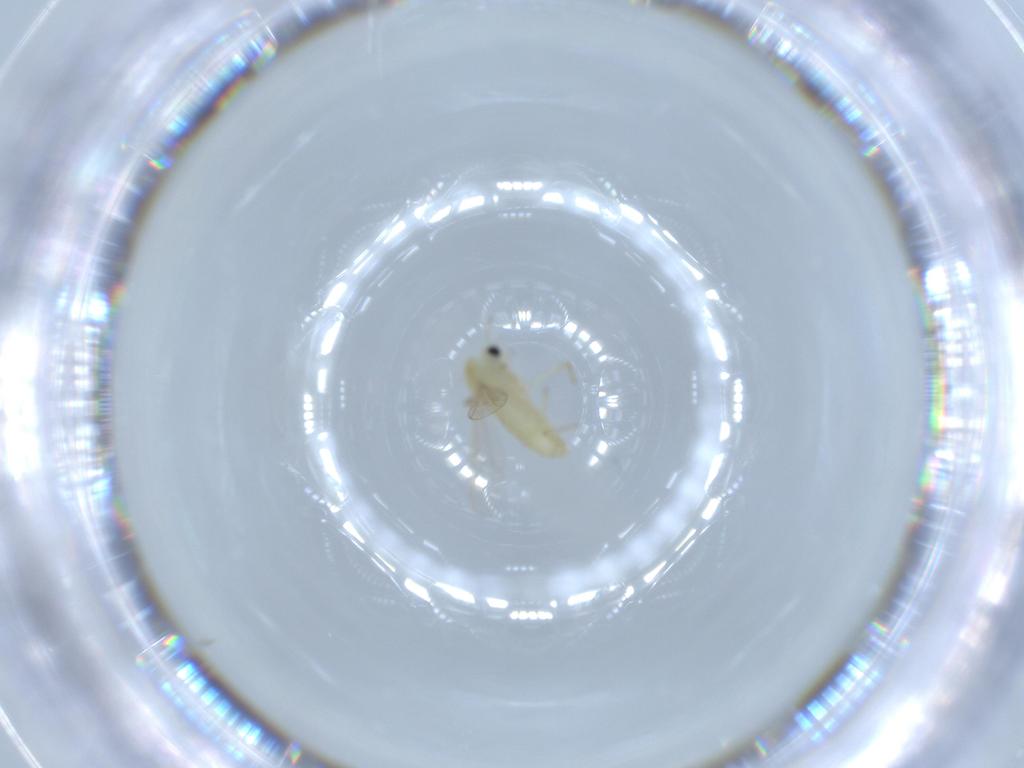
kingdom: Animalia
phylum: Arthropoda
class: Insecta
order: Diptera
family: Chironomidae
